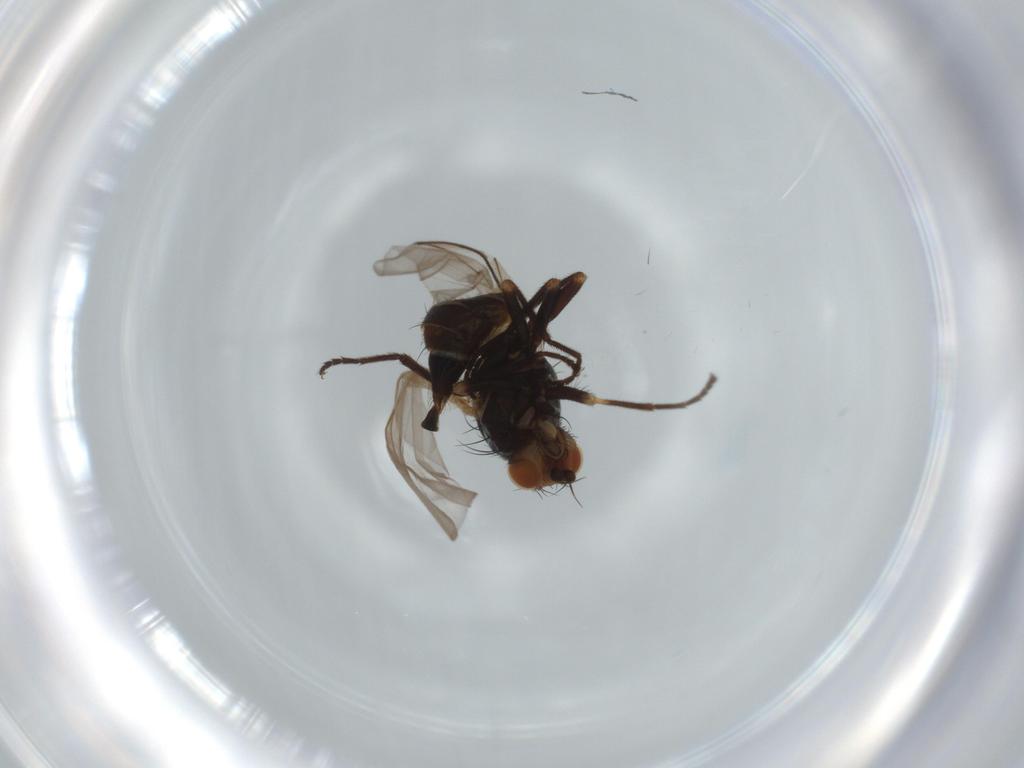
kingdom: Animalia
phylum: Arthropoda
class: Insecta
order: Diptera
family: Agromyzidae
